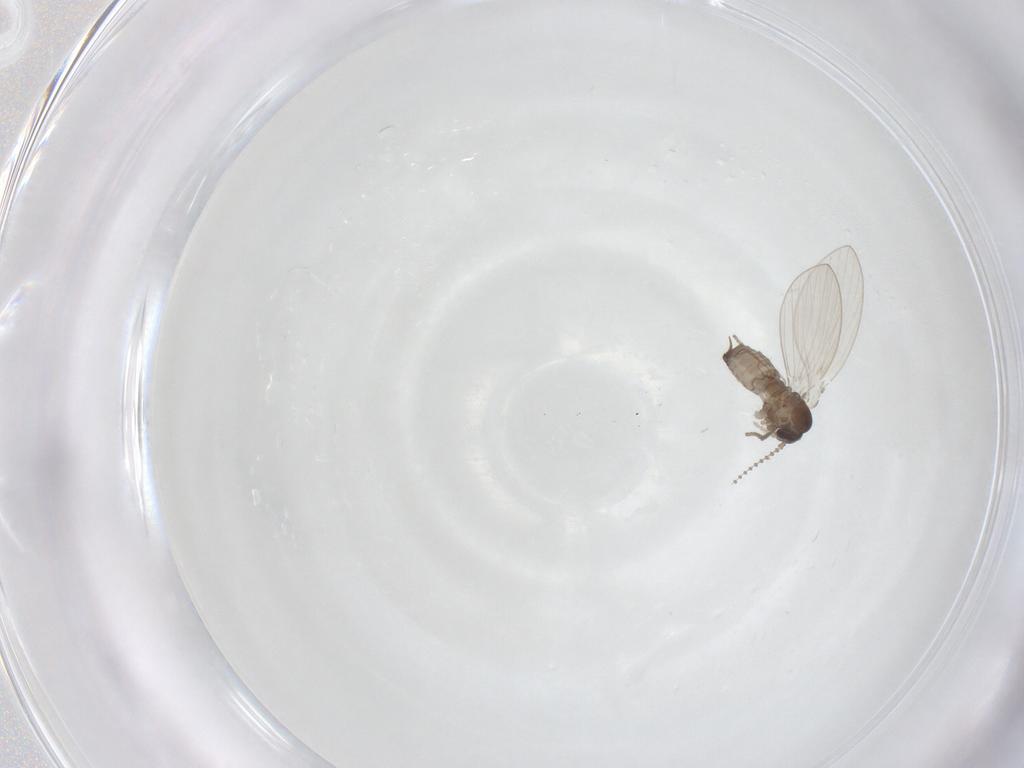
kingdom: Animalia
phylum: Arthropoda
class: Insecta
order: Diptera
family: Psychodidae
